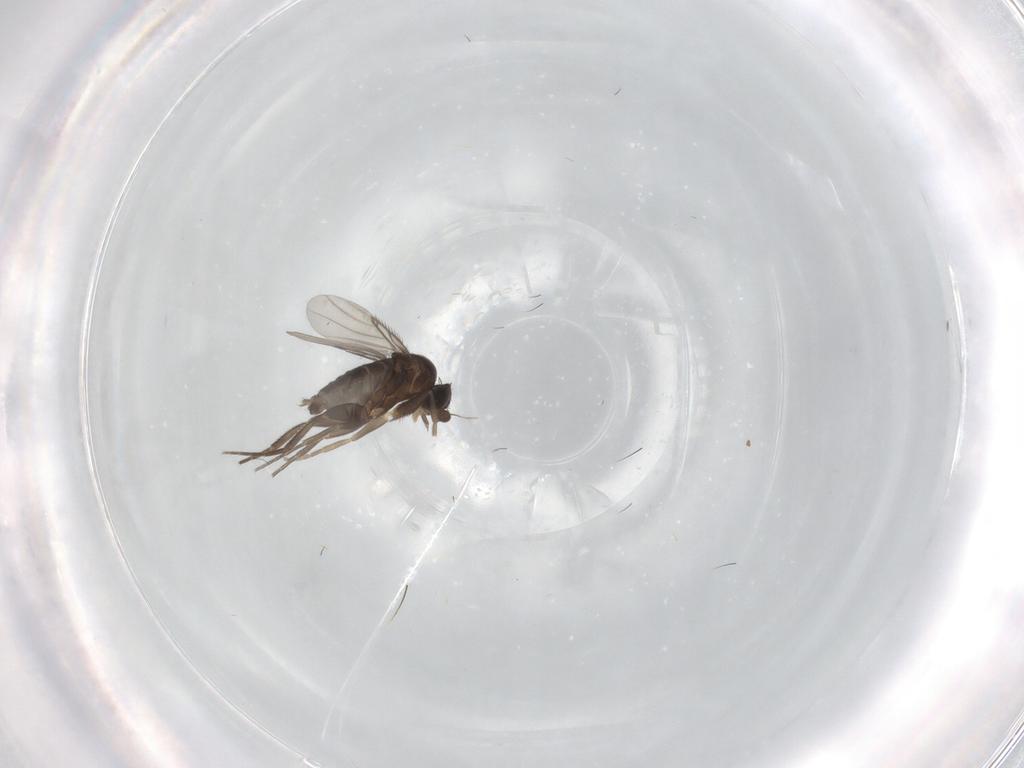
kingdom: Animalia
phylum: Arthropoda
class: Insecta
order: Diptera
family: Phoridae
